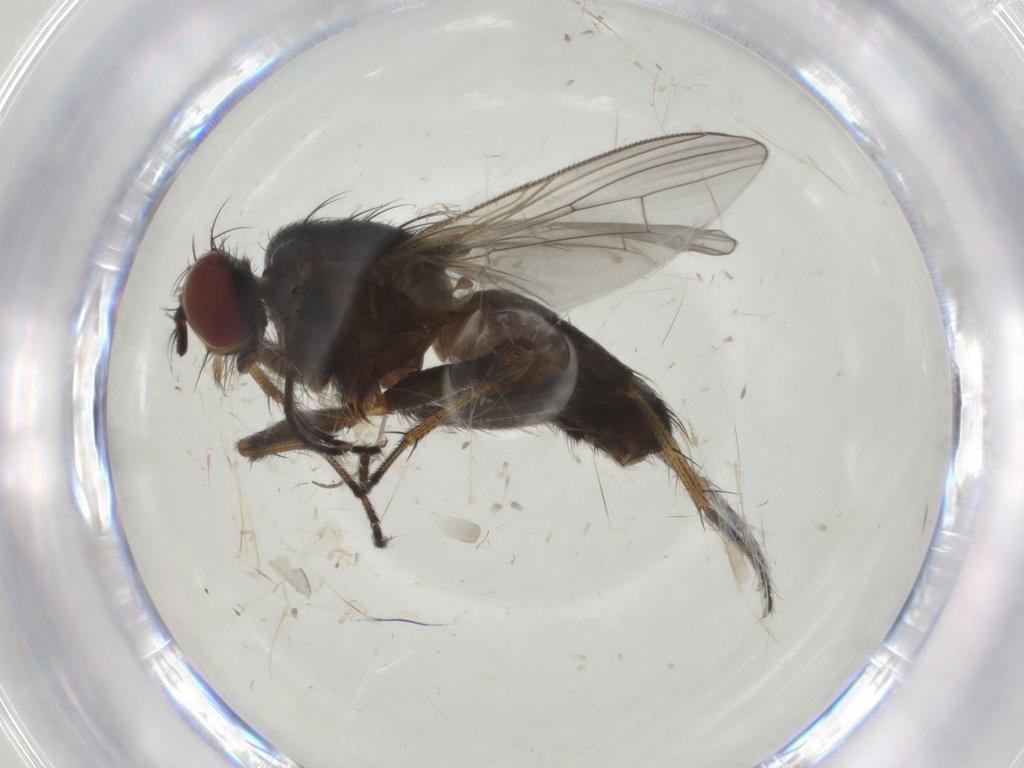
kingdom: Animalia
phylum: Arthropoda
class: Insecta
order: Diptera
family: Muscidae
